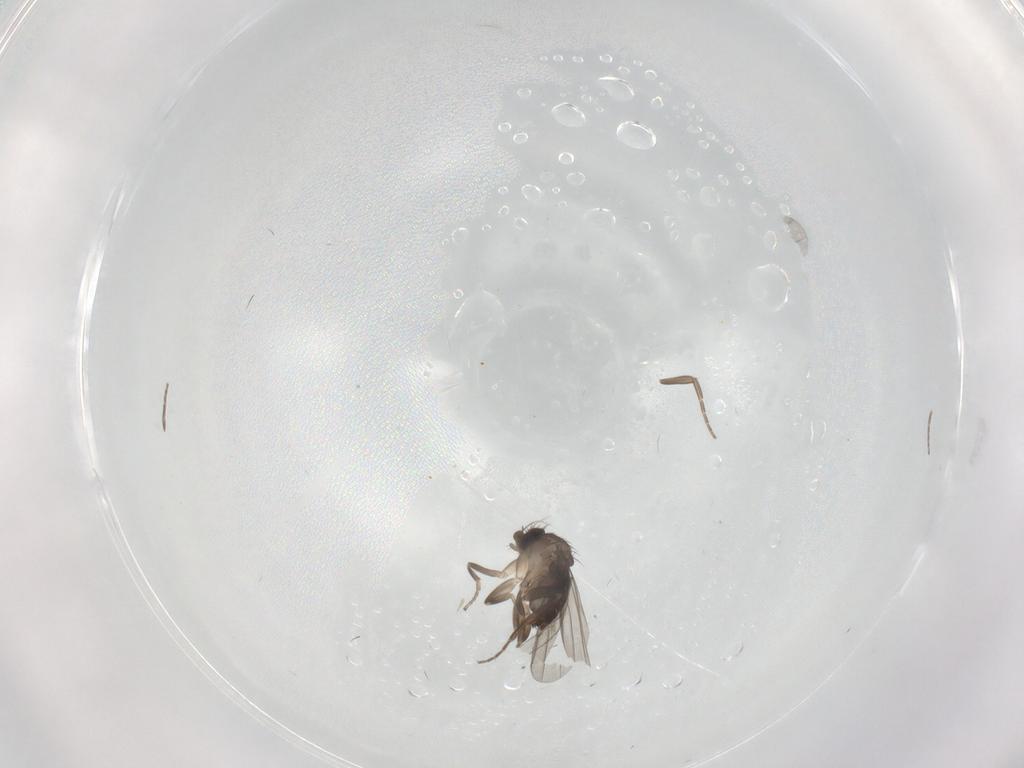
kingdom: Animalia
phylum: Arthropoda
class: Insecta
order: Diptera
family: Phoridae
